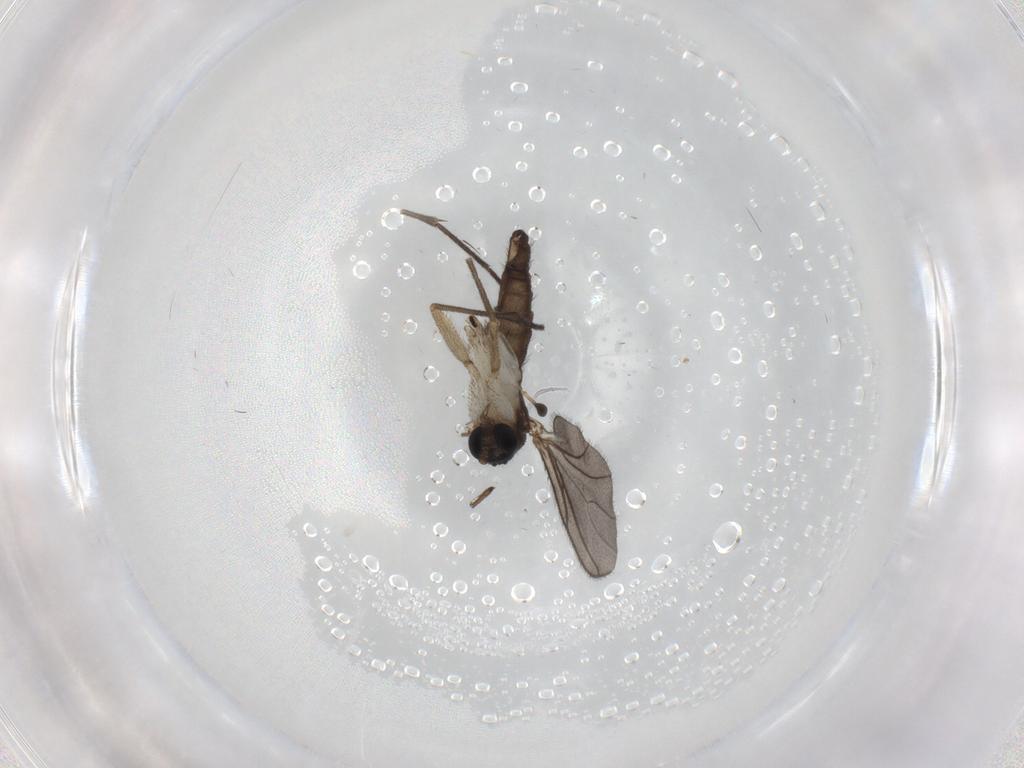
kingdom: Animalia
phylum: Arthropoda
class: Insecta
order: Diptera
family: Sciaridae
